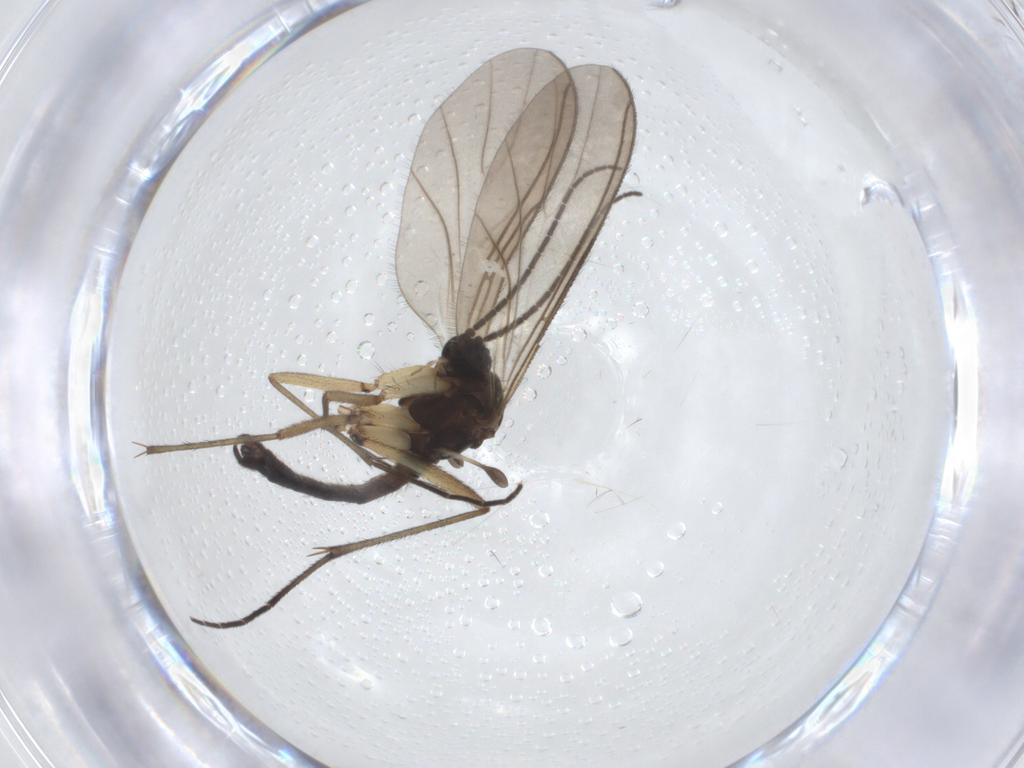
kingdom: Animalia
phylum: Arthropoda
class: Insecta
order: Diptera
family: Sciaridae
